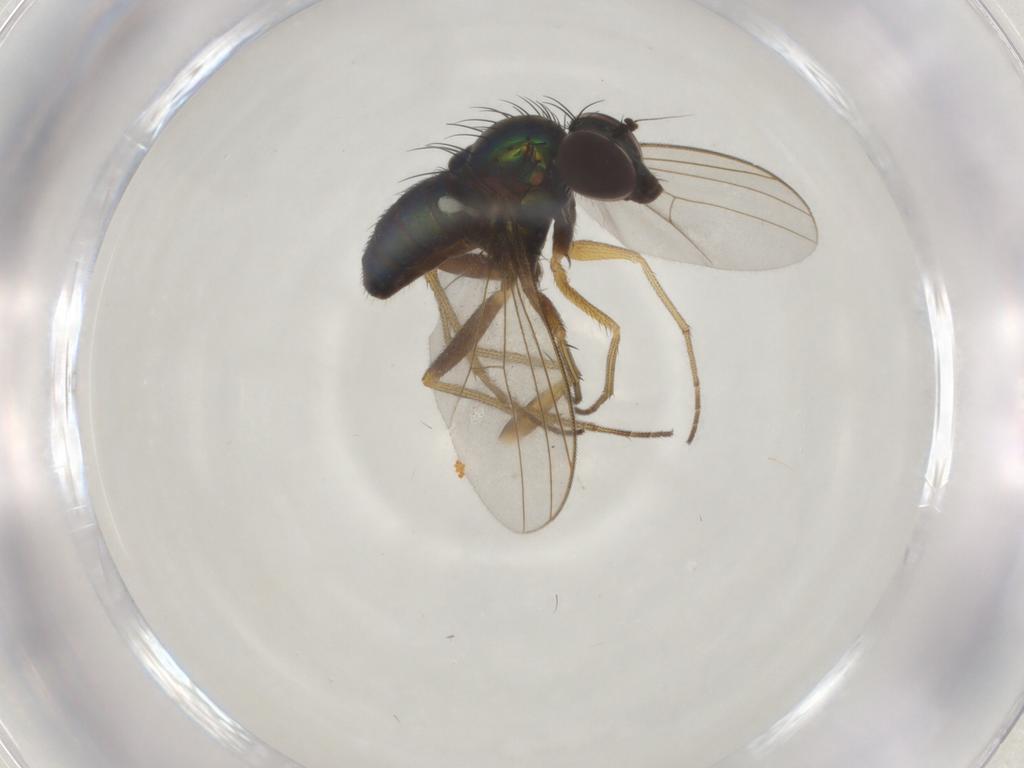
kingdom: Animalia
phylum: Arthropoda
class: Insecta
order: Diptera
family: Dolichopodidae
